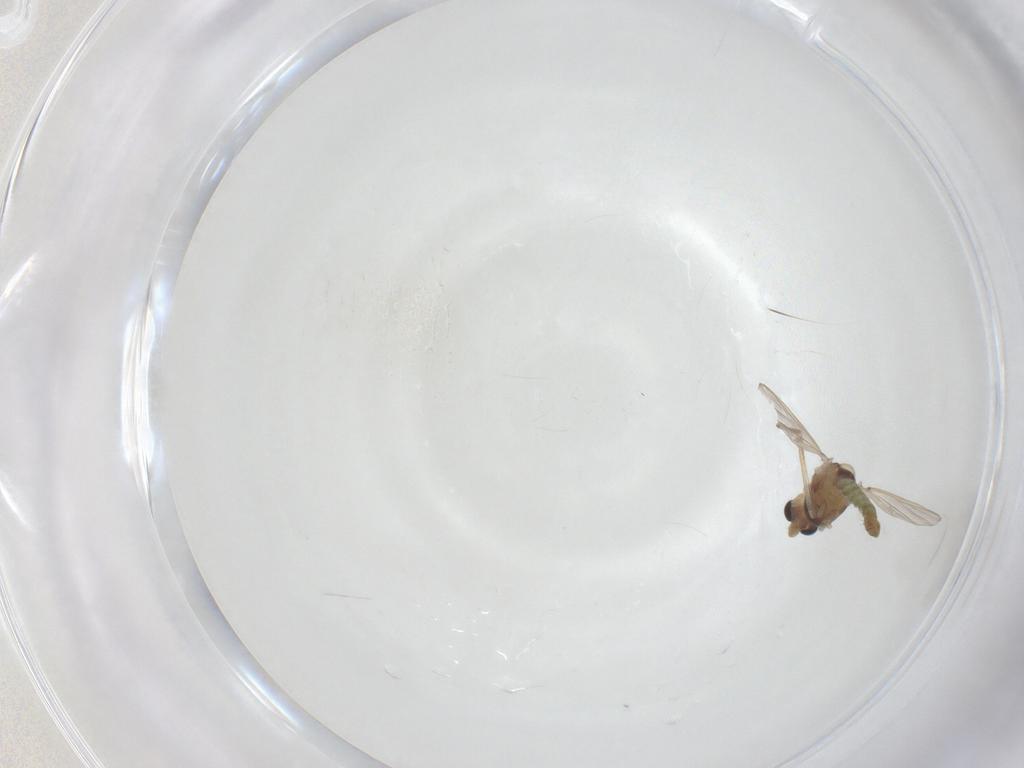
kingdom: Animalia
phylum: Arthropoda
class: Insecta
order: Diptera
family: Chironomidae
